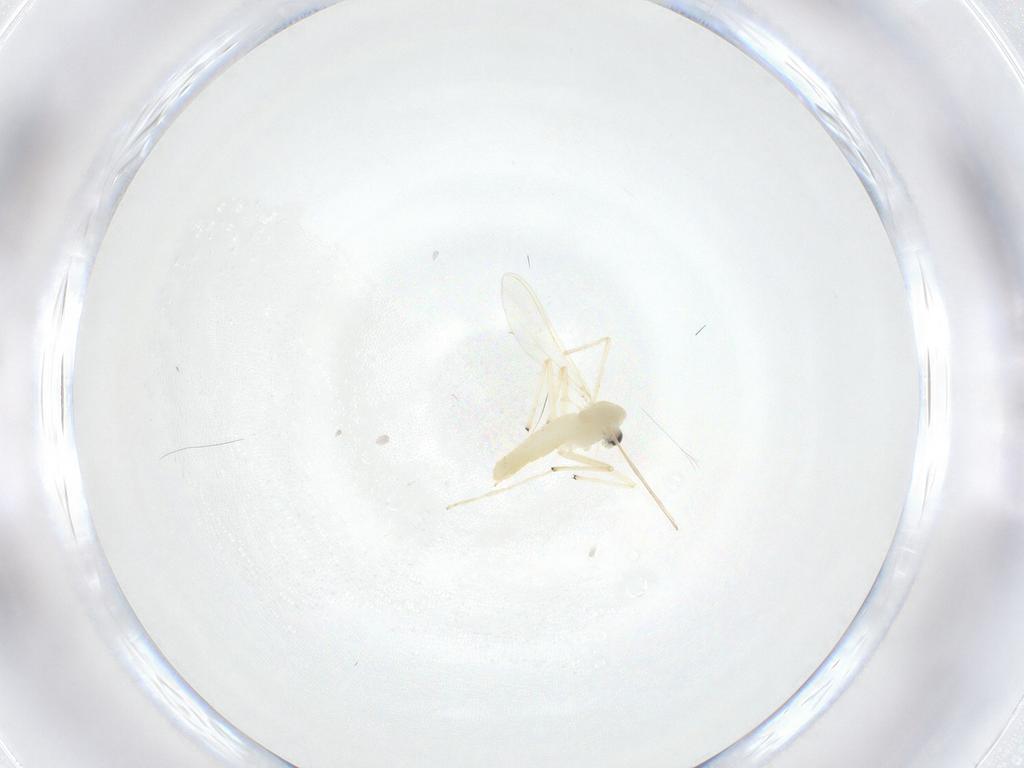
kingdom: Animalia
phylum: Arthropoda
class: Insecta
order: Diptera
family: Chironomidae
